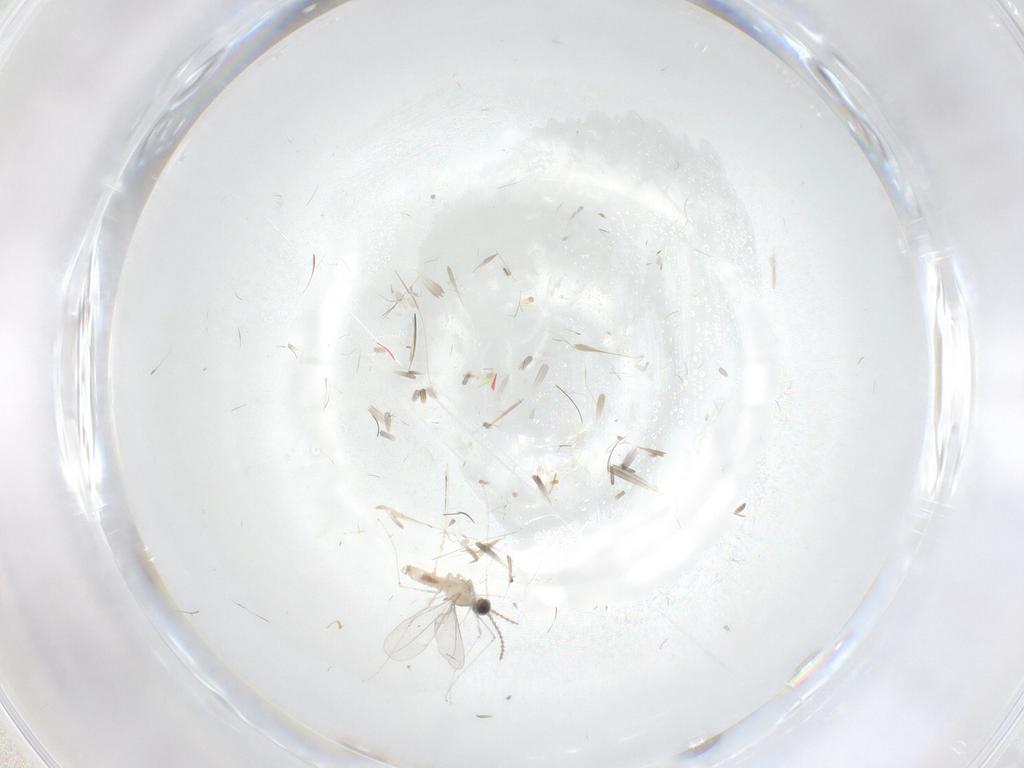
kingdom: Animalia
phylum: Arthropoda
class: Insecta
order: Diptera
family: Cecidomyiidae
